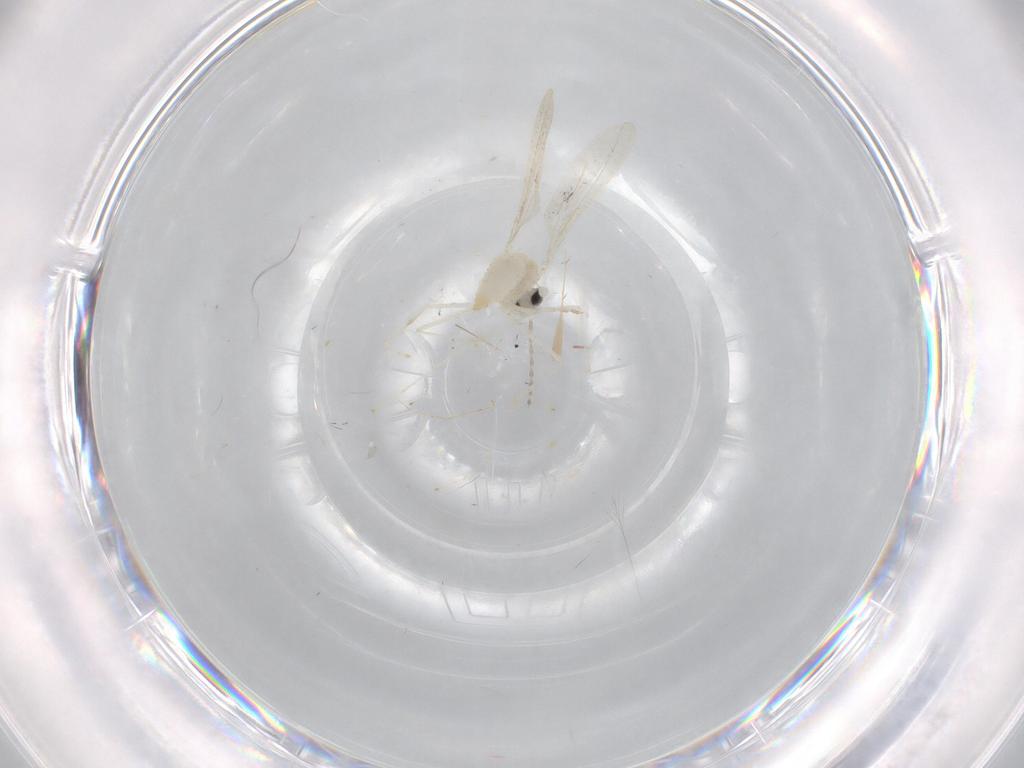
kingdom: Animalia
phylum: Arthropoda
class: Insecta
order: Diptera
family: Cecidomyiidae
